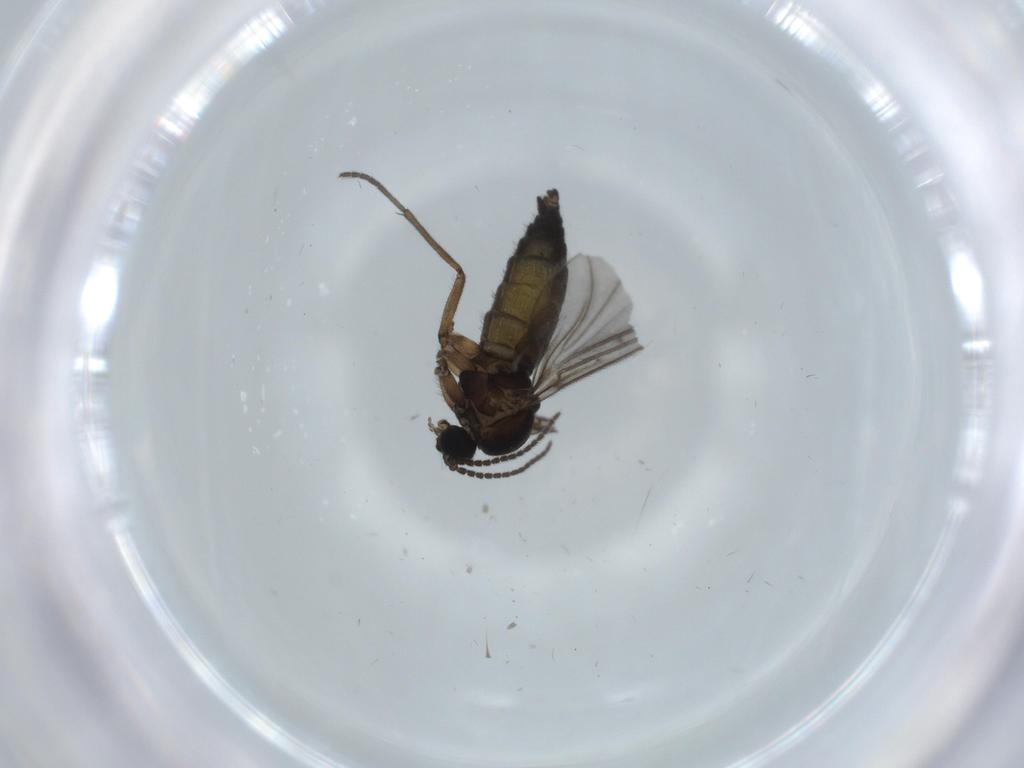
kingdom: Animalia
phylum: Arthropoda
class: Insecta
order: Diptera
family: Sciaridae
